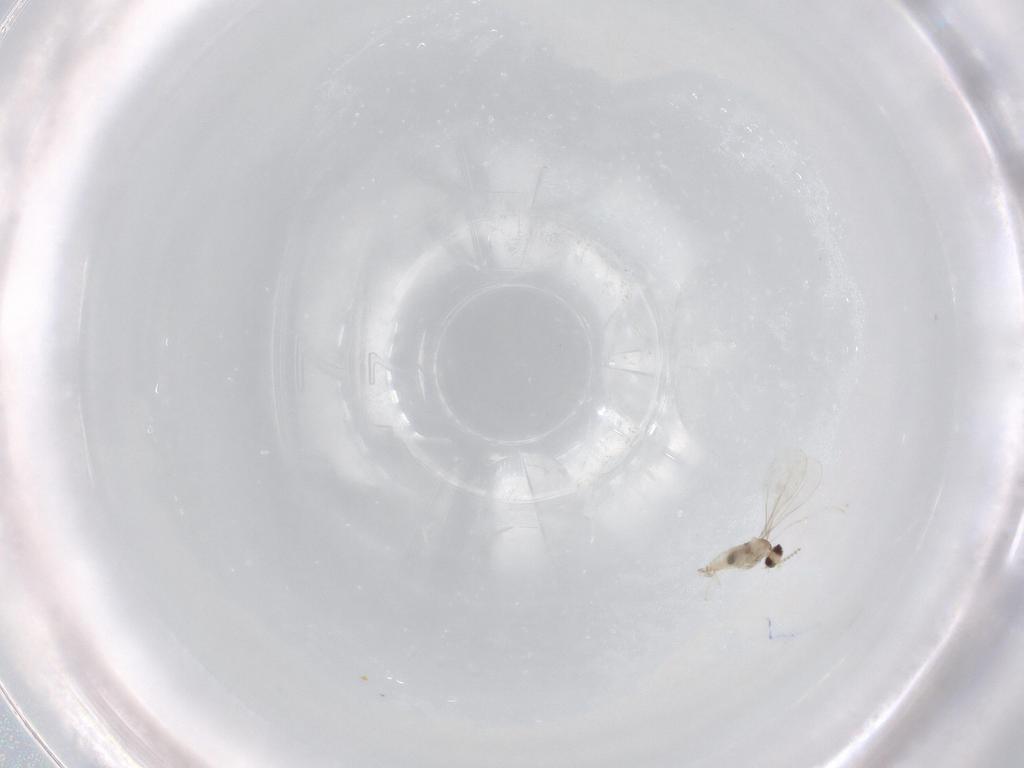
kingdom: Animalia
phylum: Arthropoda
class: Insecta
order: Diptera
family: Cecidomyiidae
